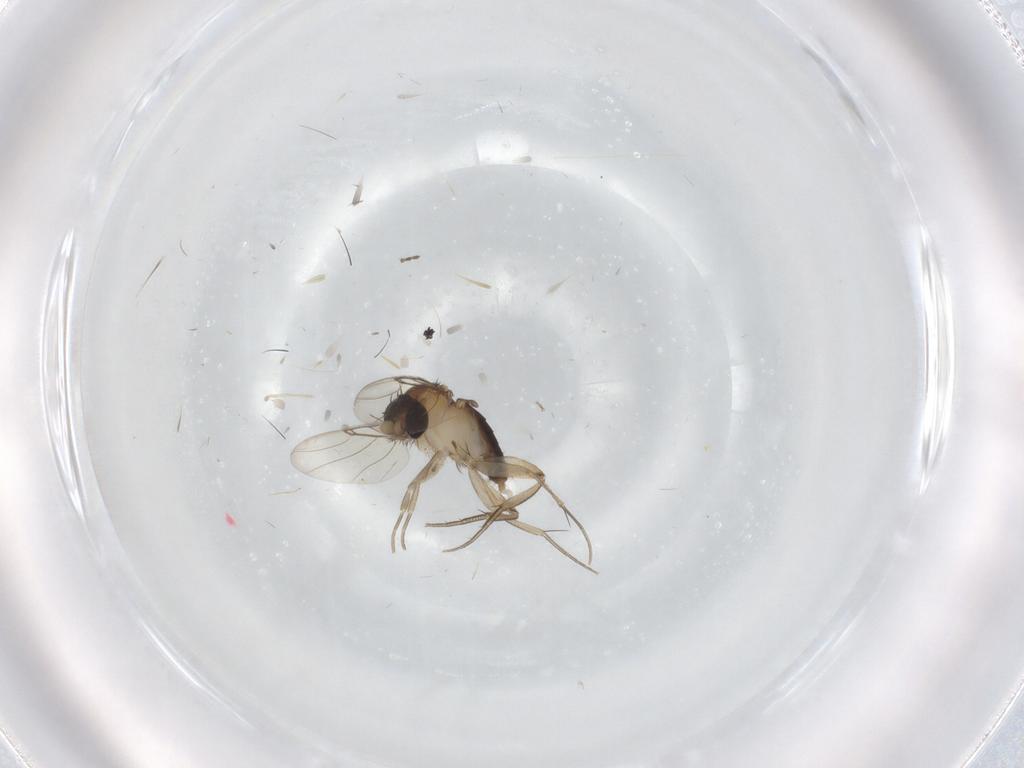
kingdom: Animalia
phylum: Arthropoda
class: Insecta
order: Diptera
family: Phoridae
